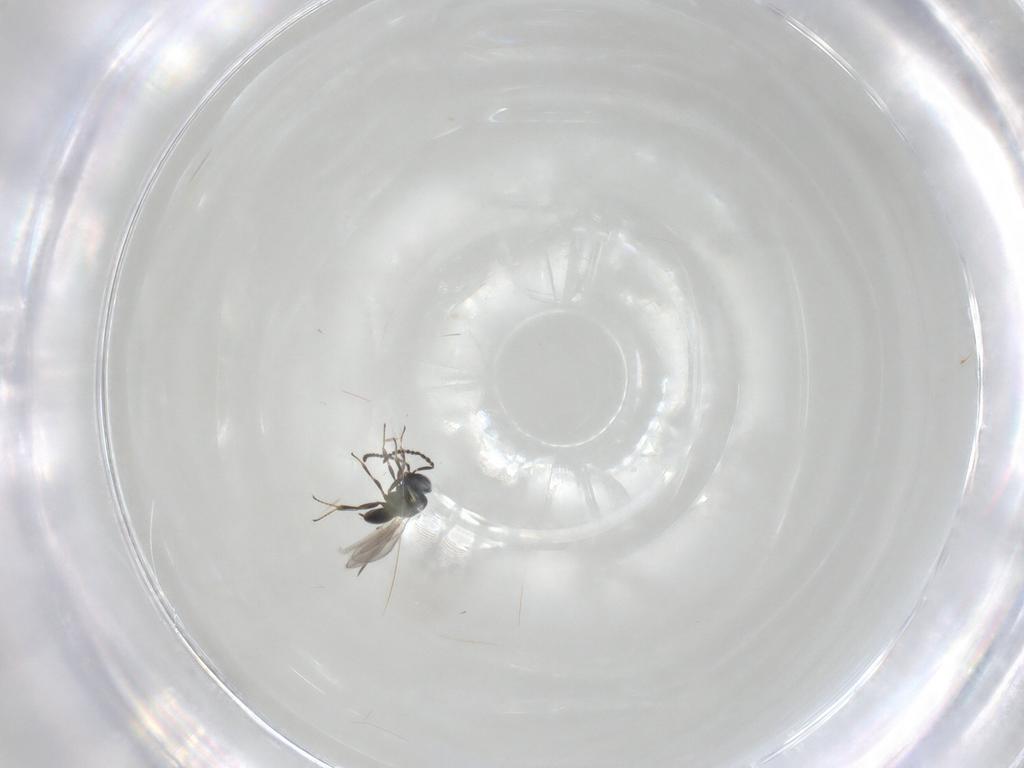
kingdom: Animalia
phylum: Arthropoda
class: Insecta
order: Hymenoptera
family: Scelionidae
